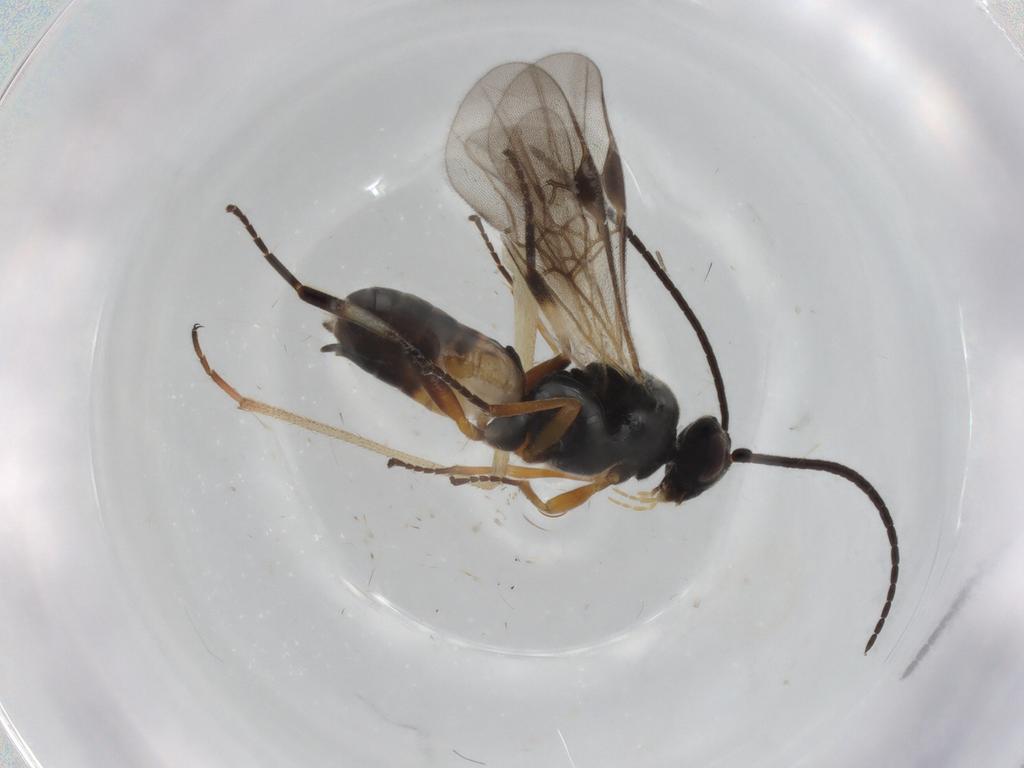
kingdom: Animalia
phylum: Arthropoda
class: Insecta
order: Hymenoptera
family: Braconidae
